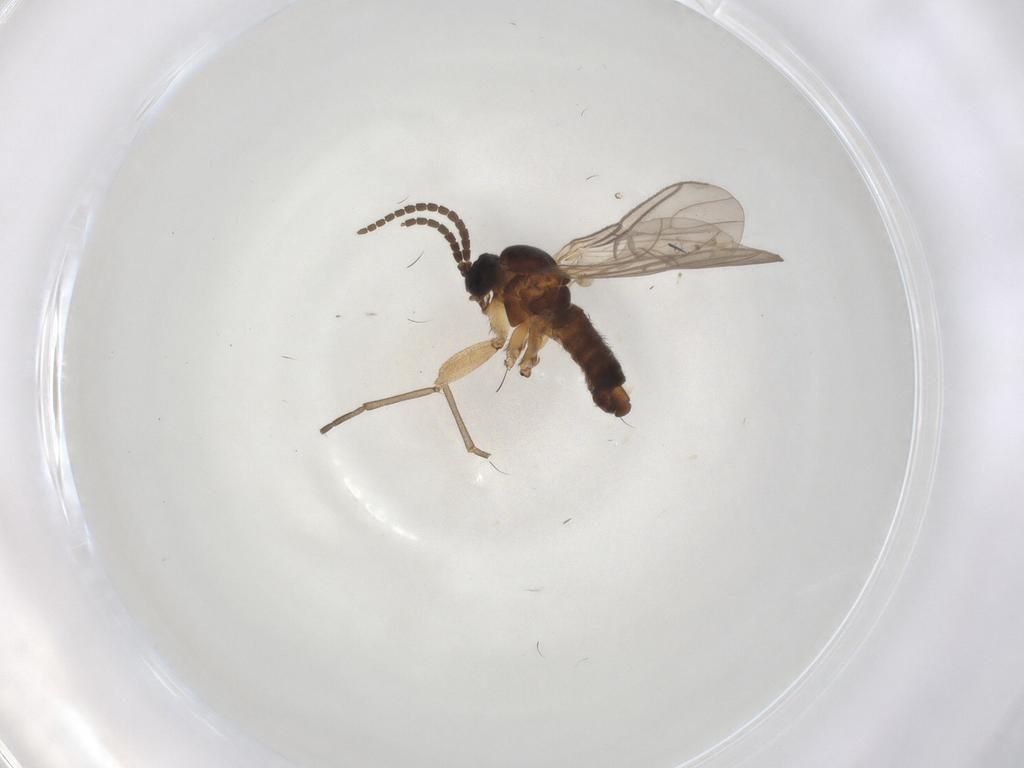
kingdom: Animalia
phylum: Arthropoda
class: Insecta
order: Diptera
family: Sciaridae
